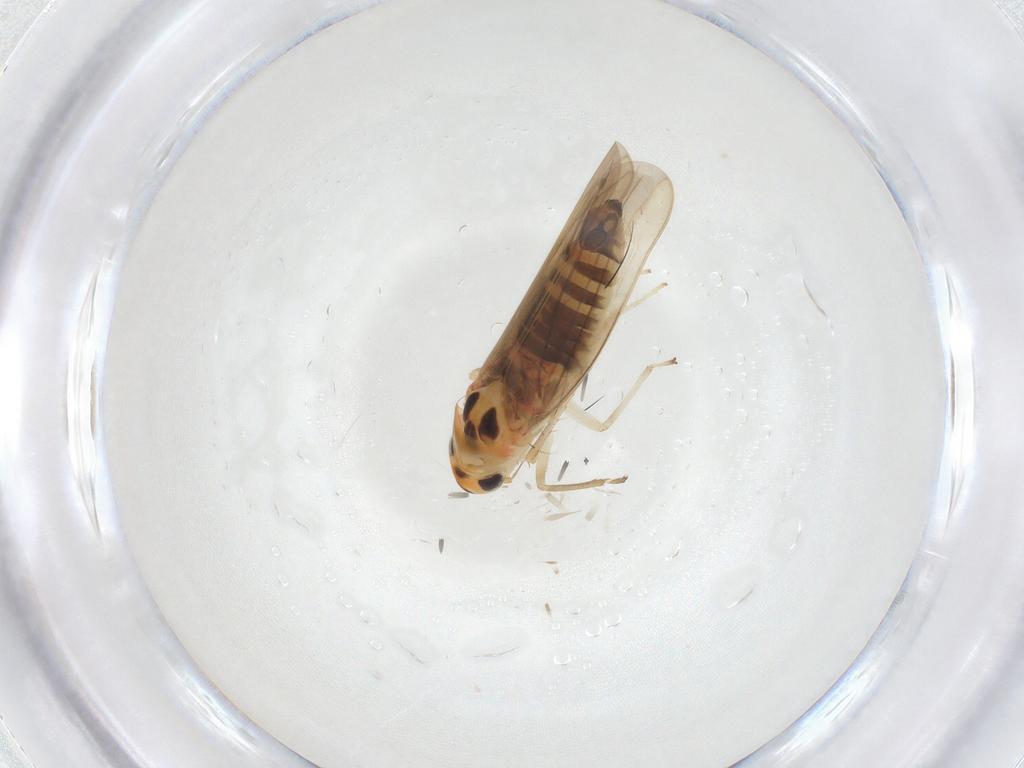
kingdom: Animalia
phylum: Arthropoda
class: Insecta
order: Hemiptera
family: Cicadellidae
